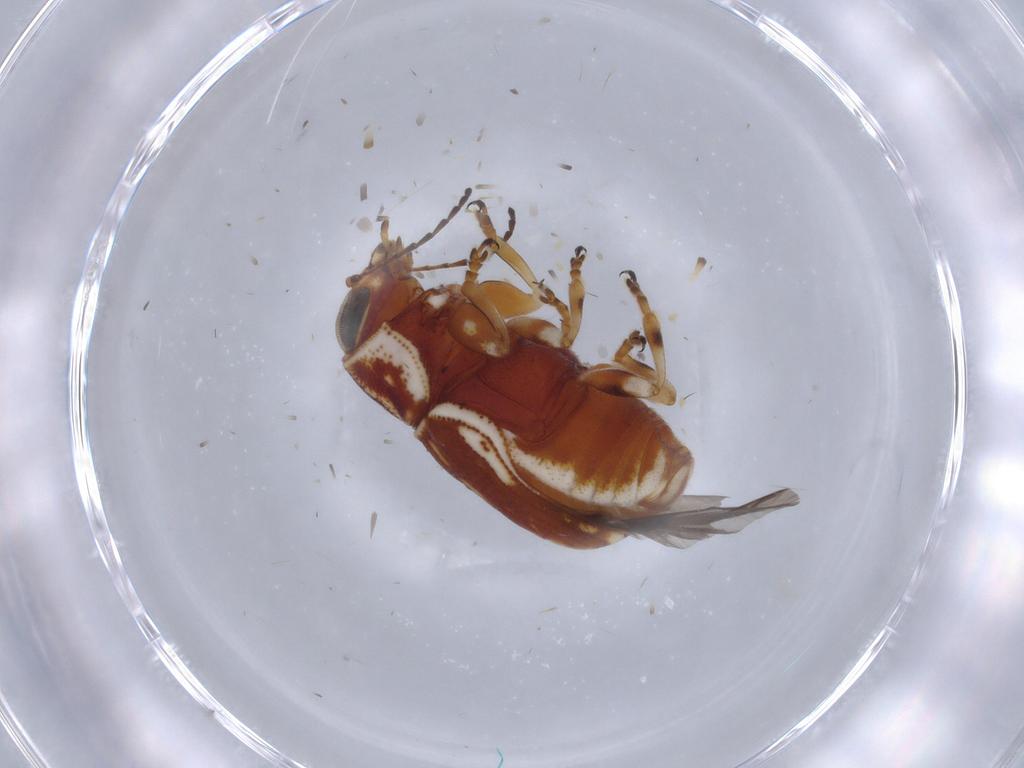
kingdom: Animalia
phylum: Arthropoda
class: Insecta
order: Coleoptera
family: Chrysomelidae
